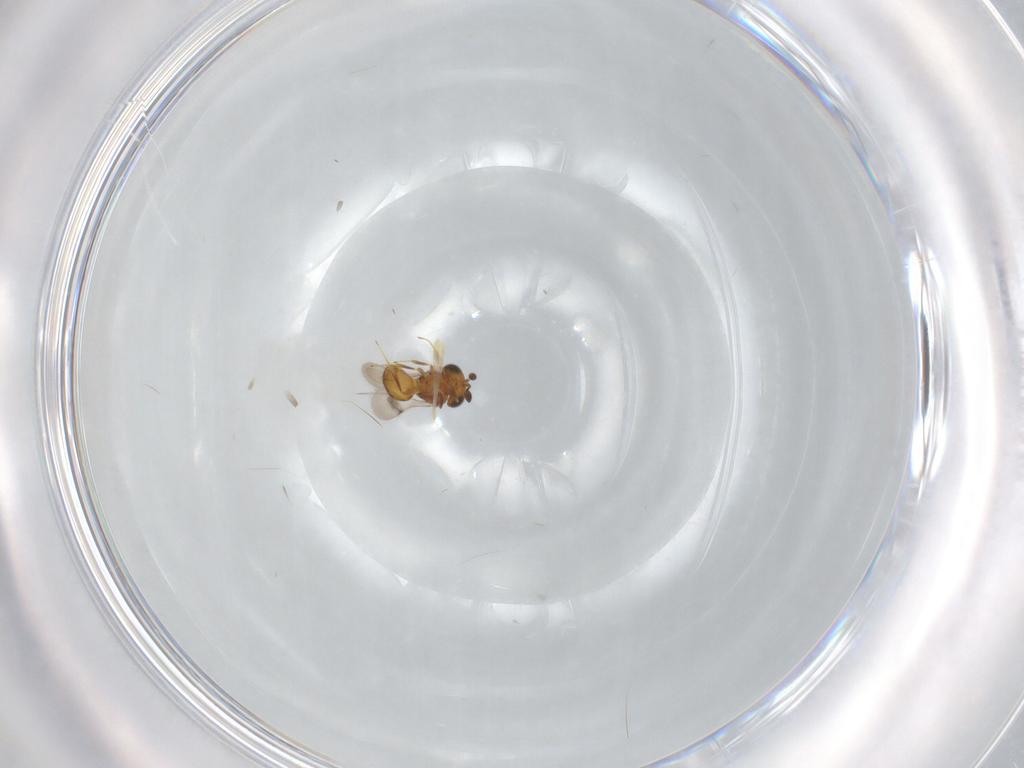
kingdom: Animalia
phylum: Arthropoda
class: Insecta
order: Hymenoptera
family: Scelionidae
